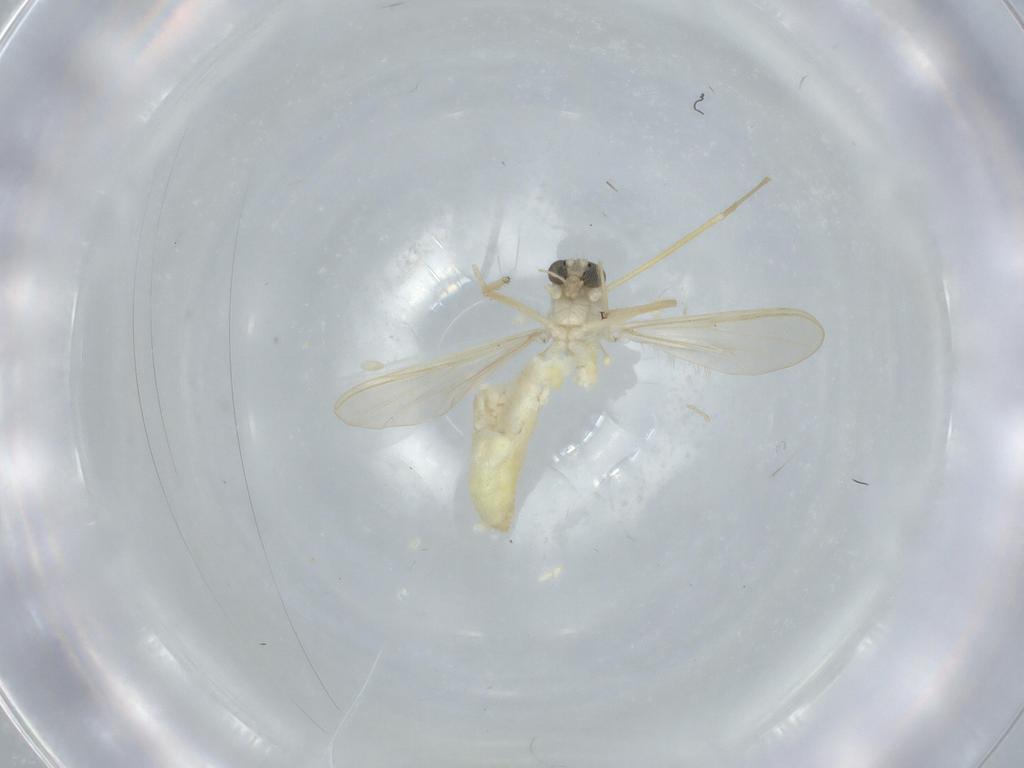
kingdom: Animalia
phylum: Arthropoda
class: Insecta
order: Diptera
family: Chironomidae
